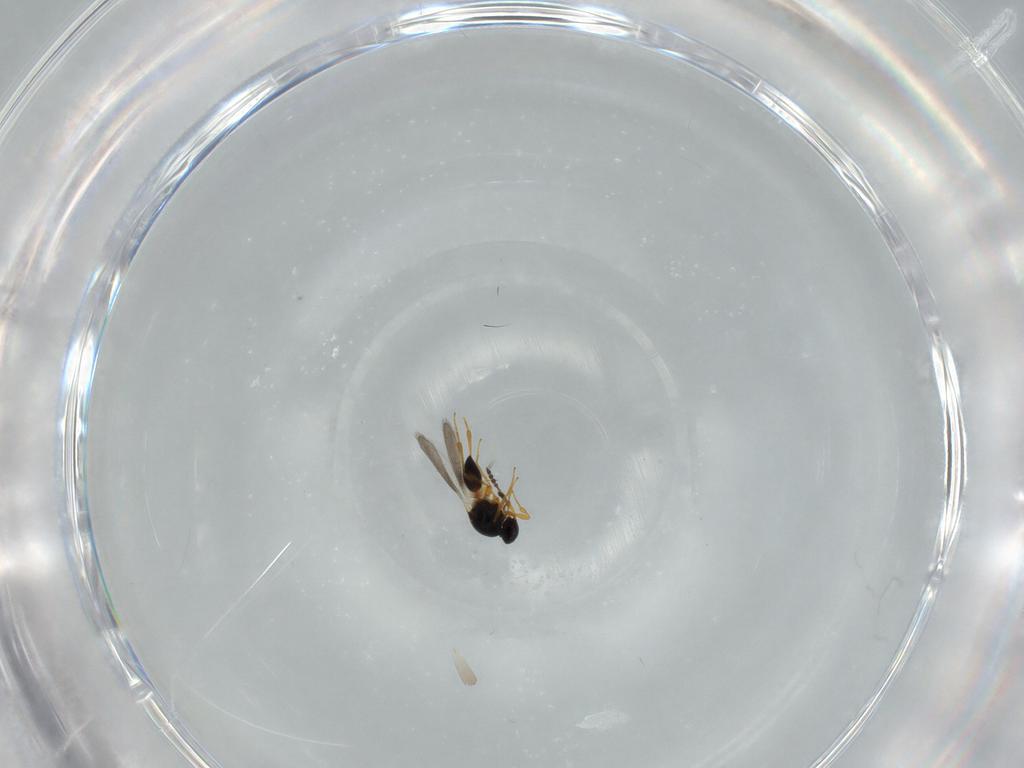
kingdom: Animalia
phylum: Arthropoda
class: Insecta
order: Hymenoptera
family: Platygastridae
